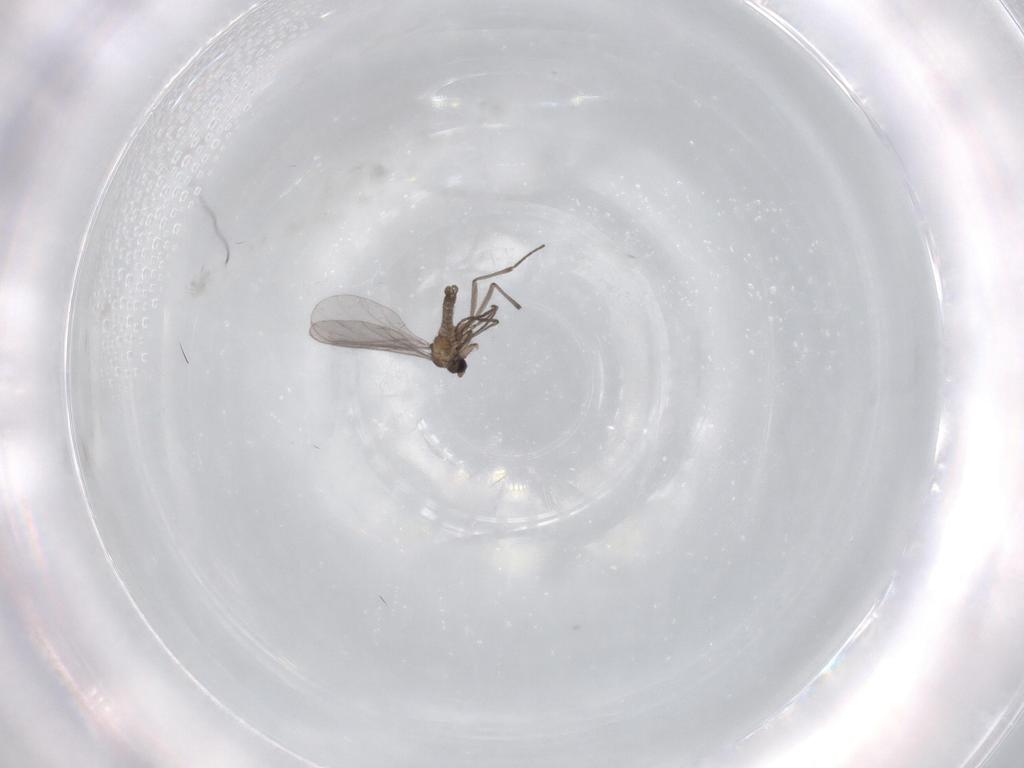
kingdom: Animalia
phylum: Arthropoda
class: Insecta
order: Diptera
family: Sciaridae
